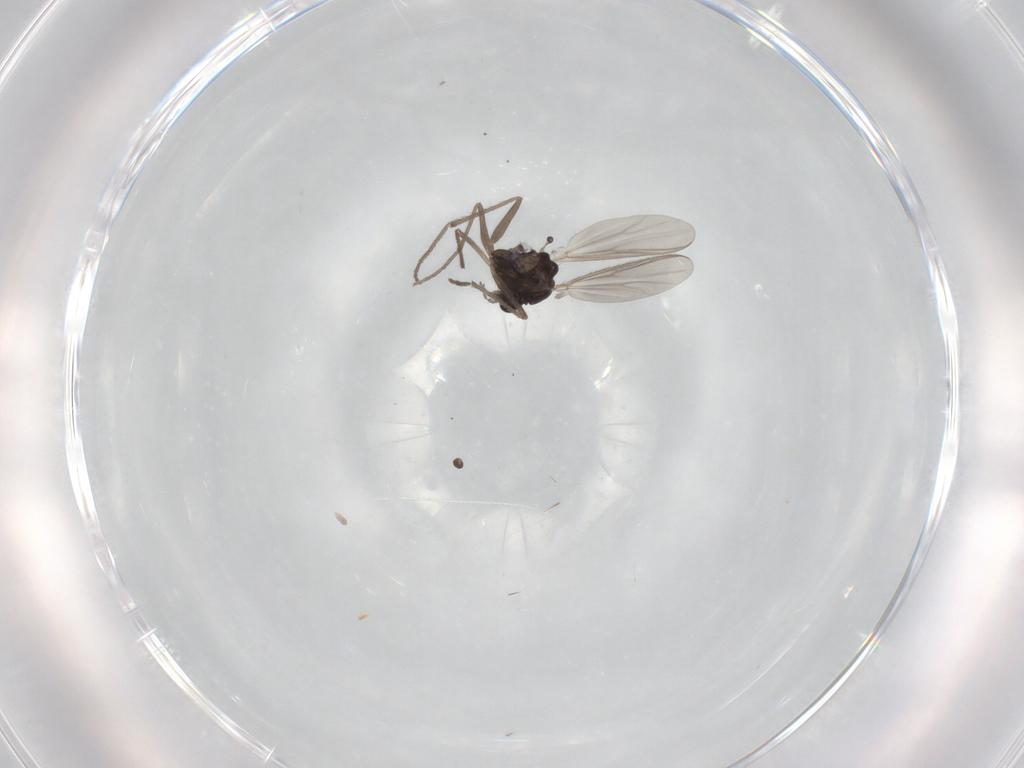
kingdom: Animalia
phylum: Arthropoda
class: Insecta
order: Diptera
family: Chironomidae
